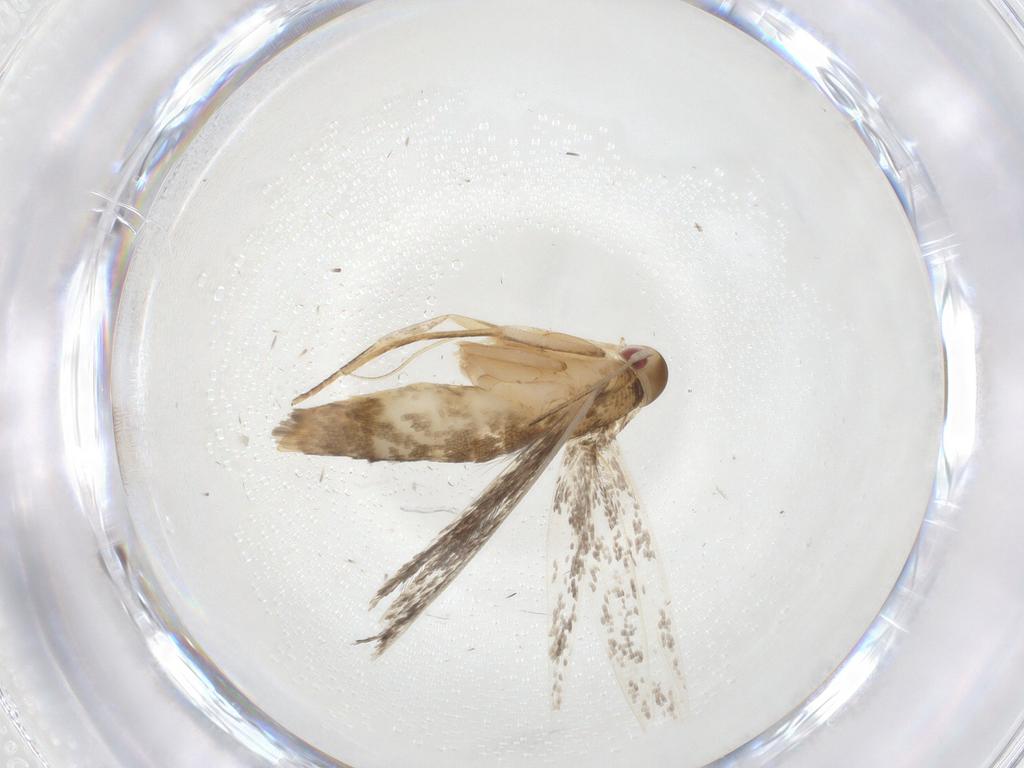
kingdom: Animalia
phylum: Arthropoda
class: Insecta
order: Lepidoptera
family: Cosmopterigidae
